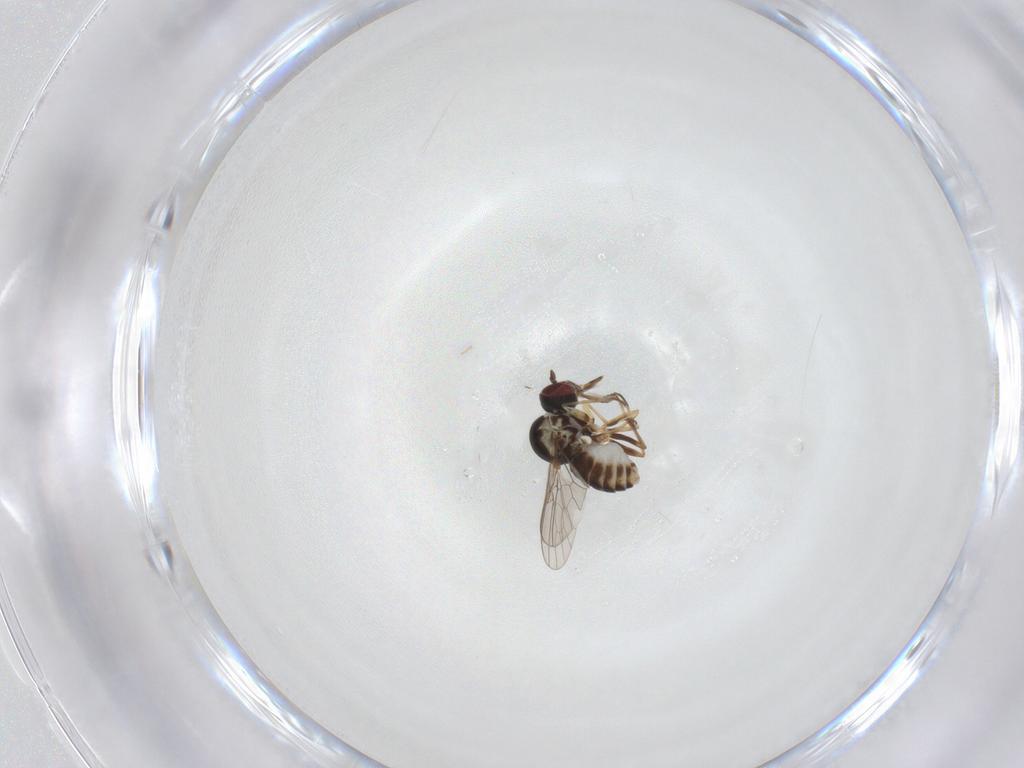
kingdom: Animalia
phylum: Arthropoda
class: Insecta
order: Diptera
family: Mythicomyiidae
